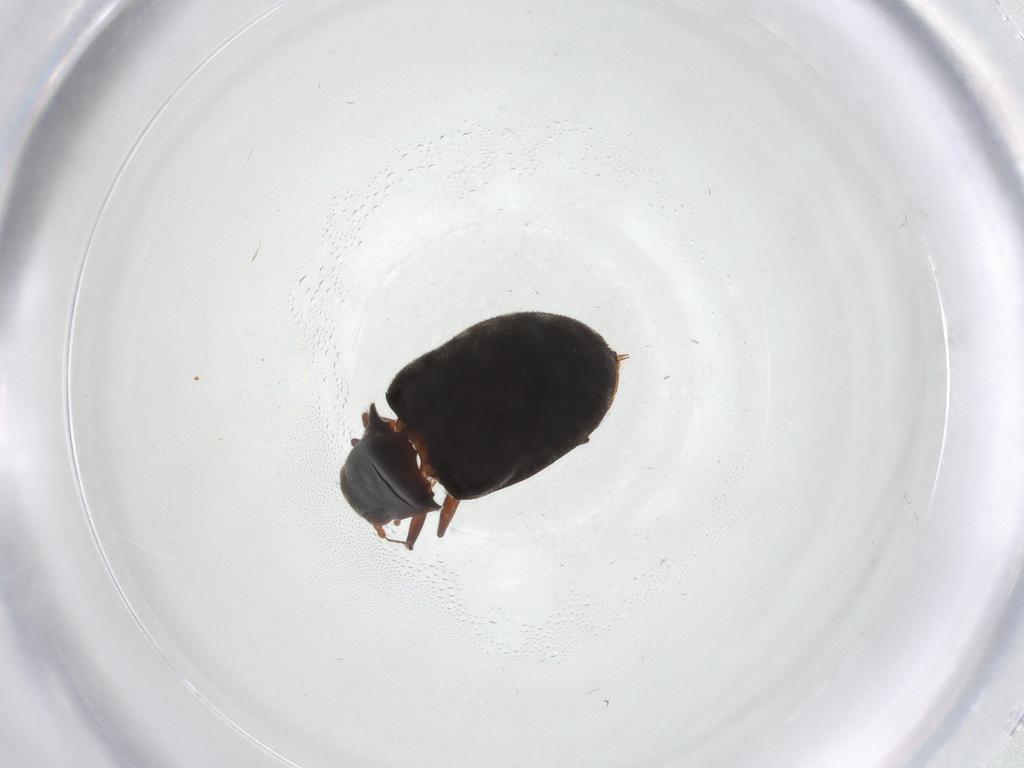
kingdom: Animalia
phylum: Arthropoda
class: Insecta
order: Coleoptera
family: Limnichidae
